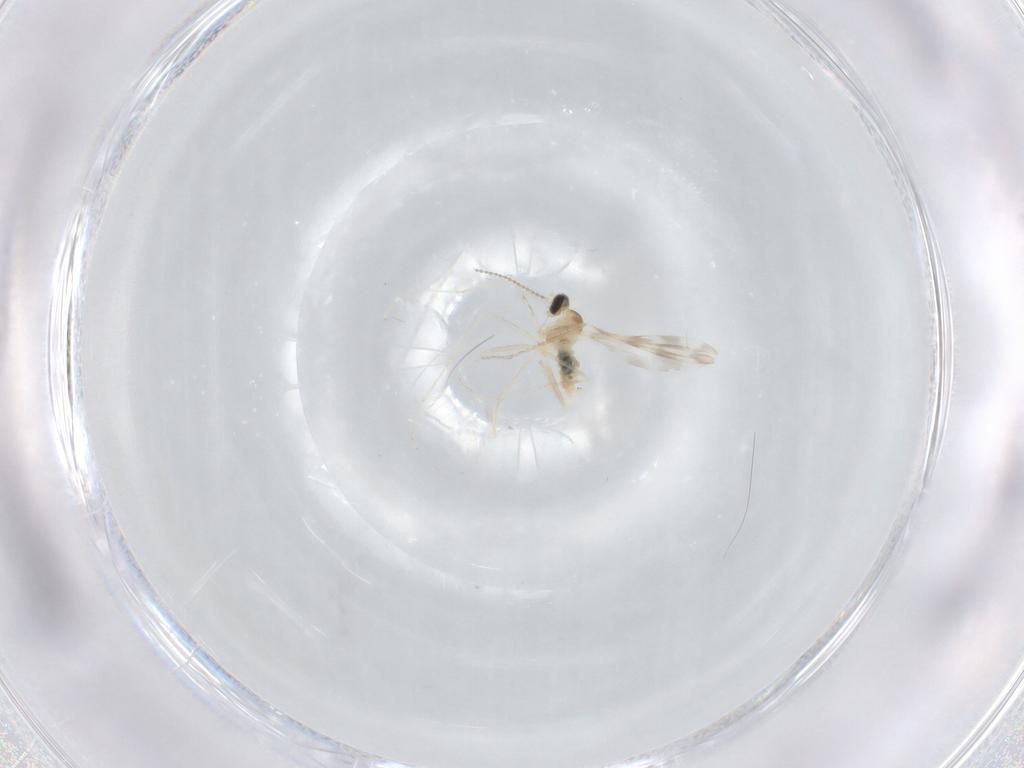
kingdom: Animalia
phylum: Arthropoda
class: Insecta
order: Diptera
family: Cecidomyiidae
